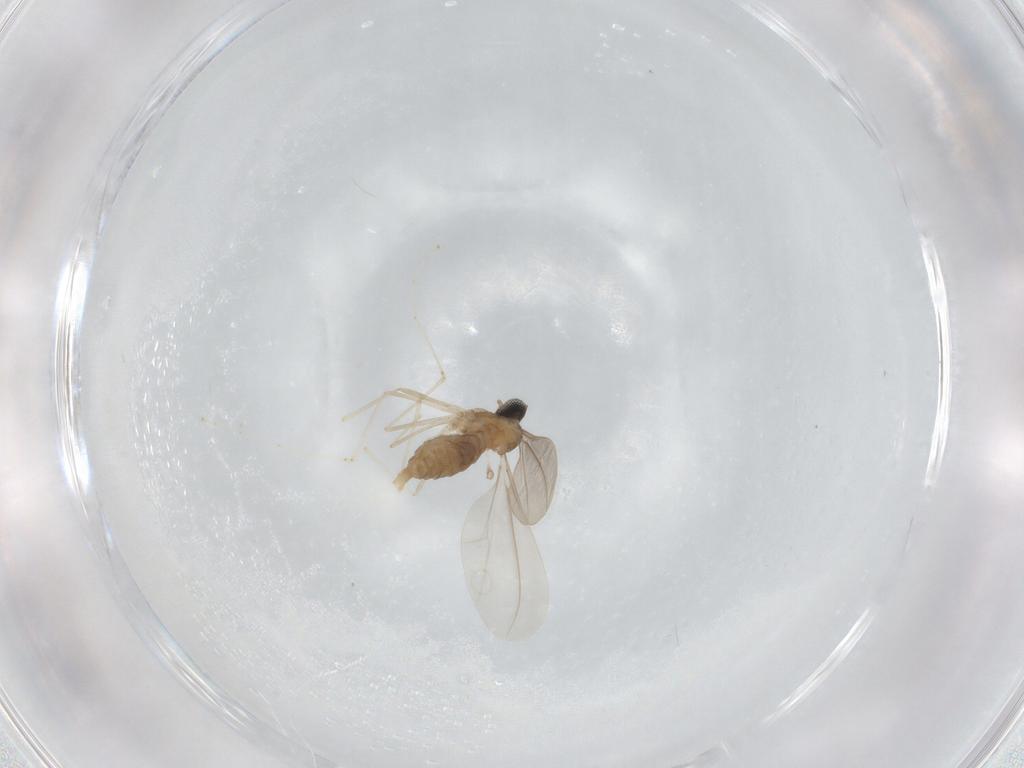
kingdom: Animalia
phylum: Arthropoda
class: Insecta
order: Diptera
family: Cecidomyiidae
